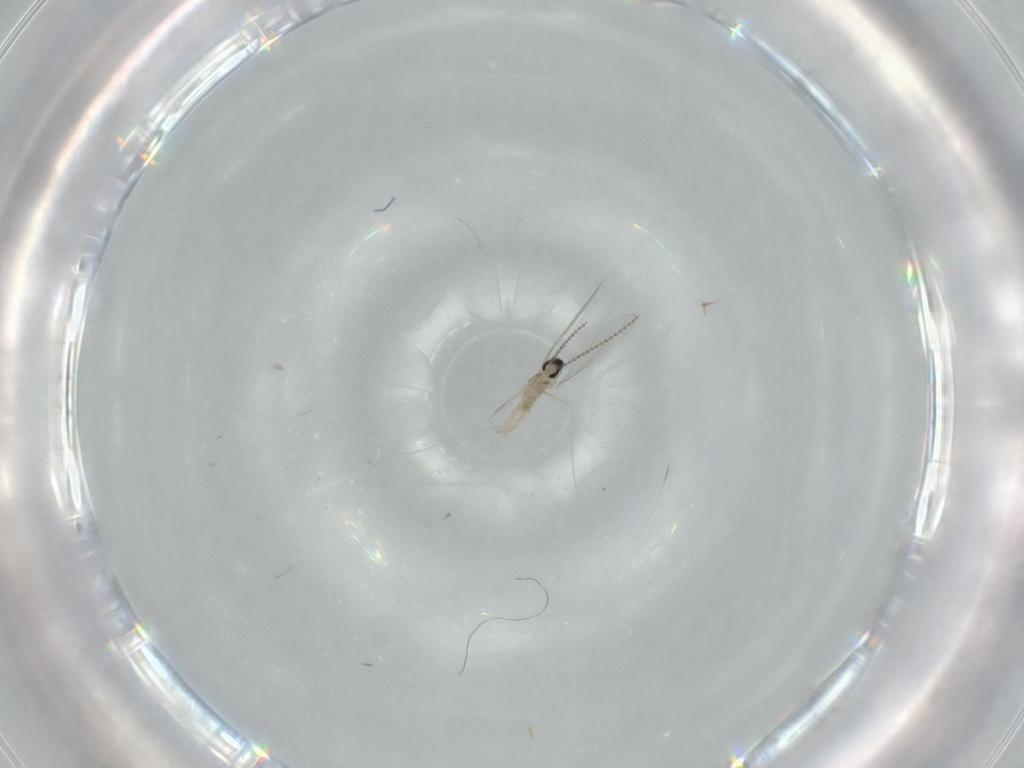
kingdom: Animalia
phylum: Arthropoda
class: Insecta
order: Diptera
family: Cecidomyiidae
